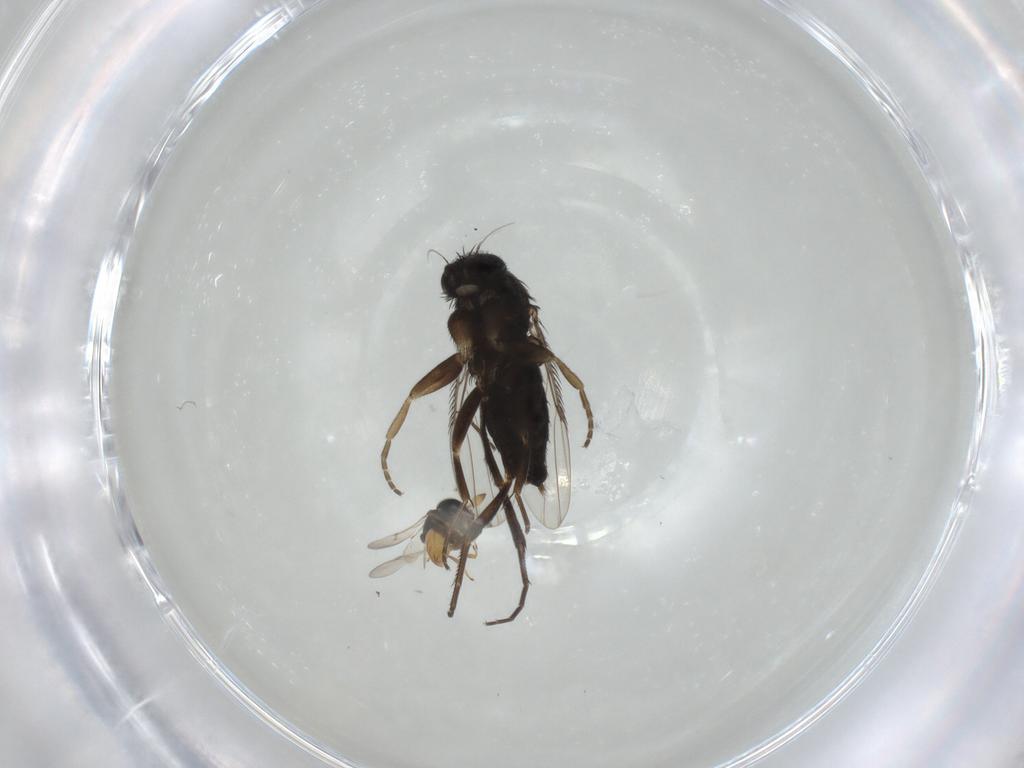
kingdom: Animalia
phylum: Arthropoda
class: Insecta
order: Diptera
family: Phoridae
